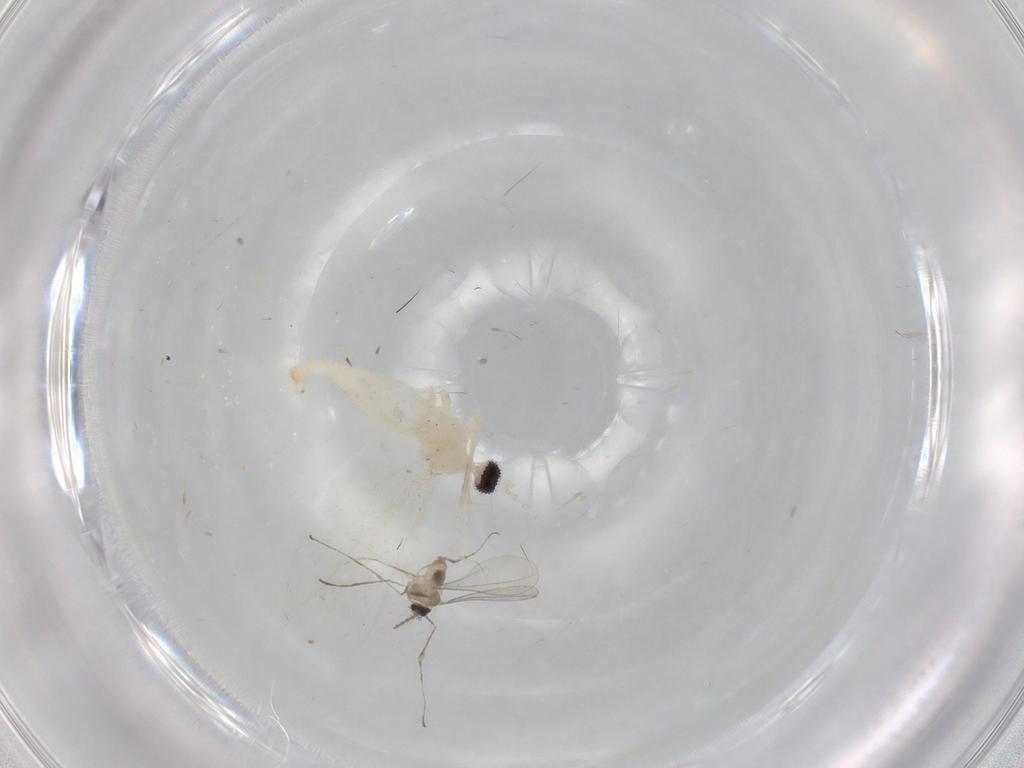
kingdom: Animalia
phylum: Arthropoda
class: Insecta
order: Diptera
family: Cecidomyiidae
